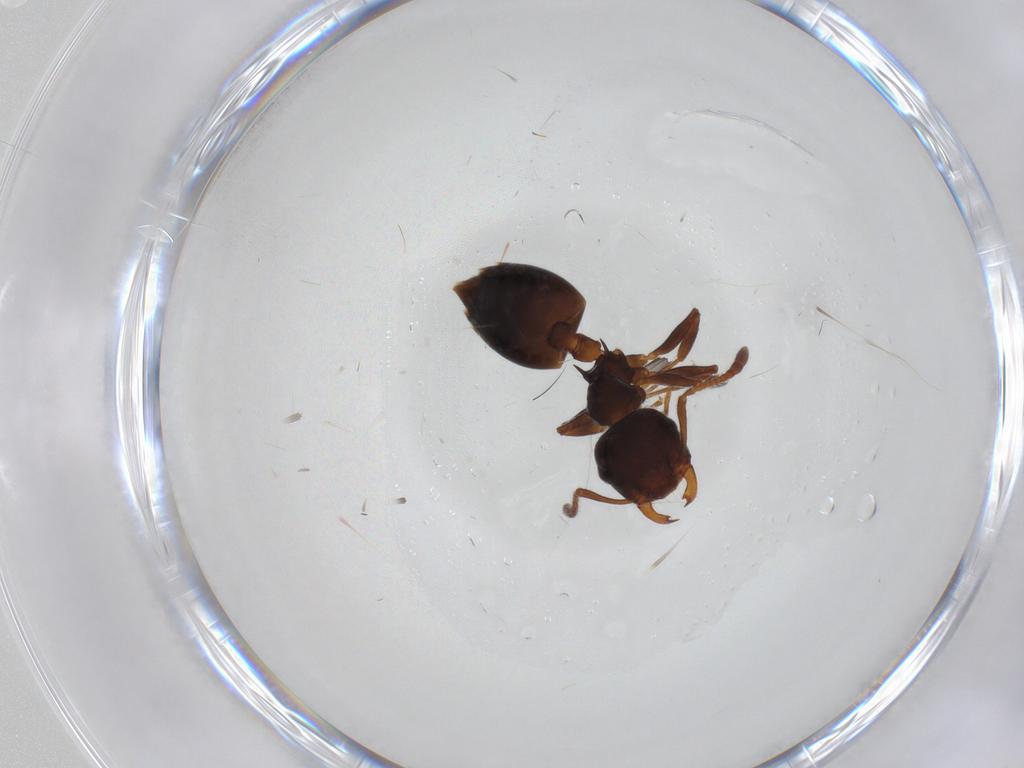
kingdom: Animalia
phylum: Arthropoda
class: Insecta
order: Hymenoptera
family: Formicidae
